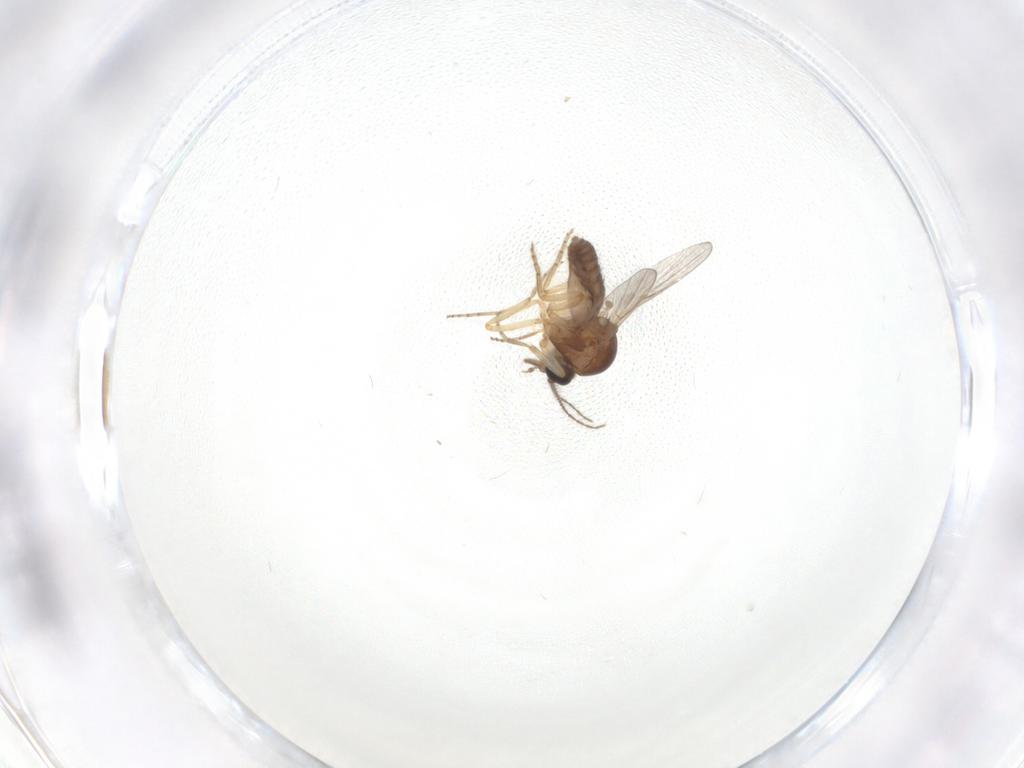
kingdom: Animalia
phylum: Arthropoda
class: Insecta
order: Diptera
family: Ceratopogonidae
